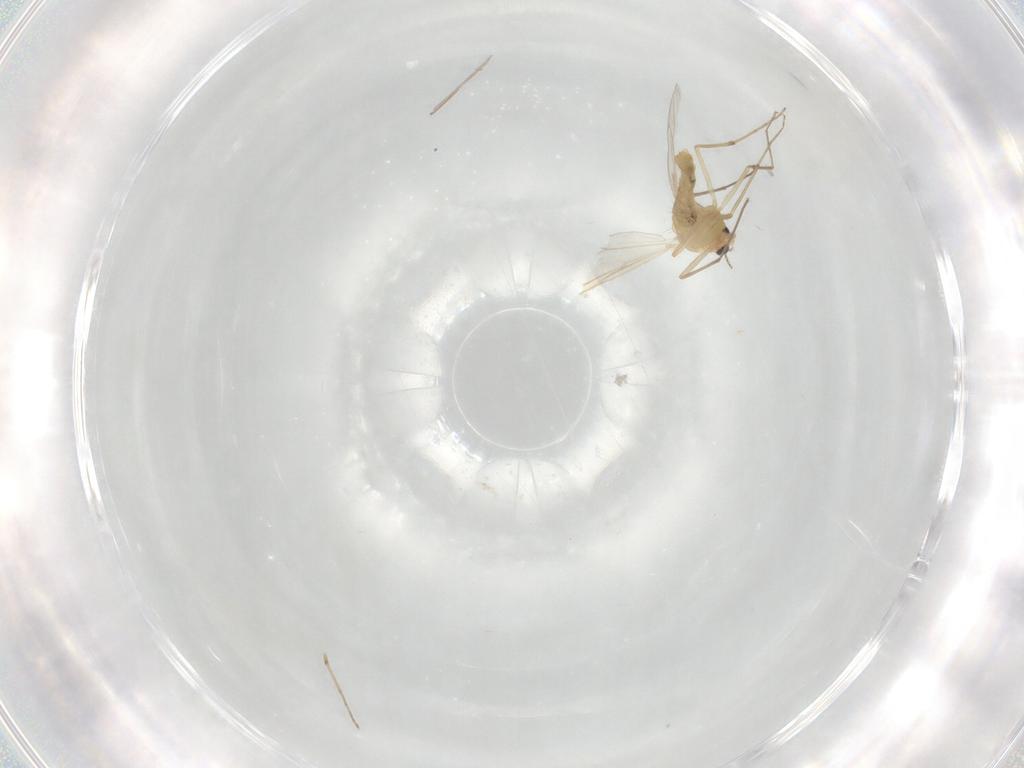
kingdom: Animalia
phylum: Arthropoda
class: Insecta
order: Diptera
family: Chironomidae
